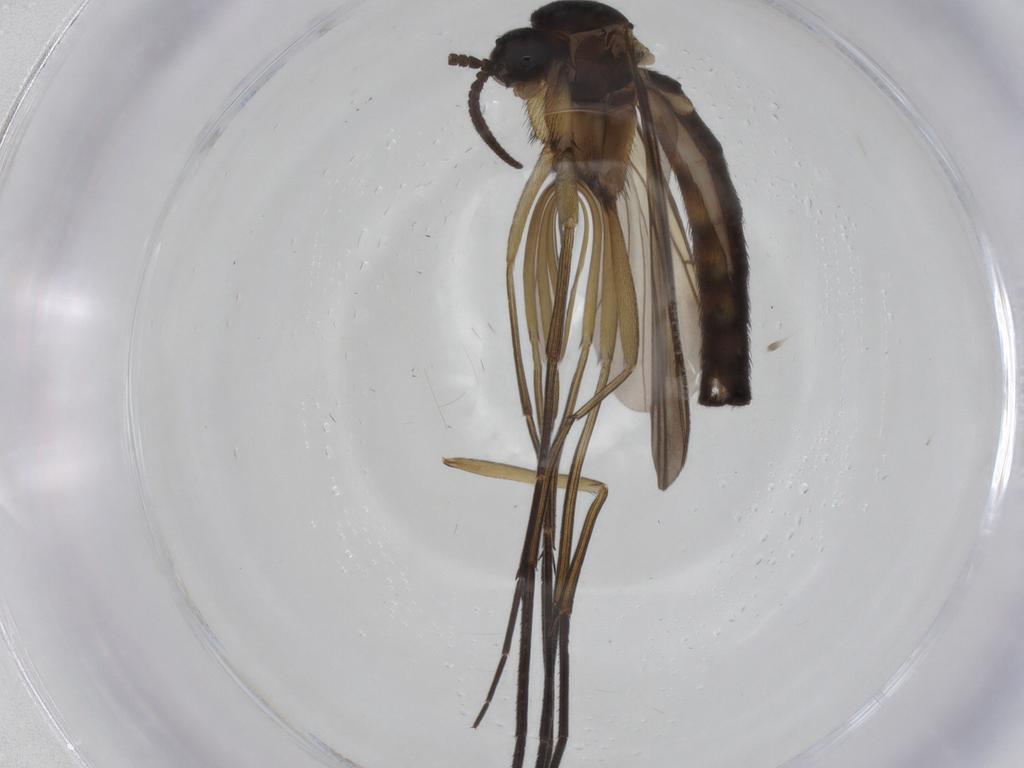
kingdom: Animalia
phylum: Arthropoda
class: Insecta
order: Diptera
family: Keroplatidae
